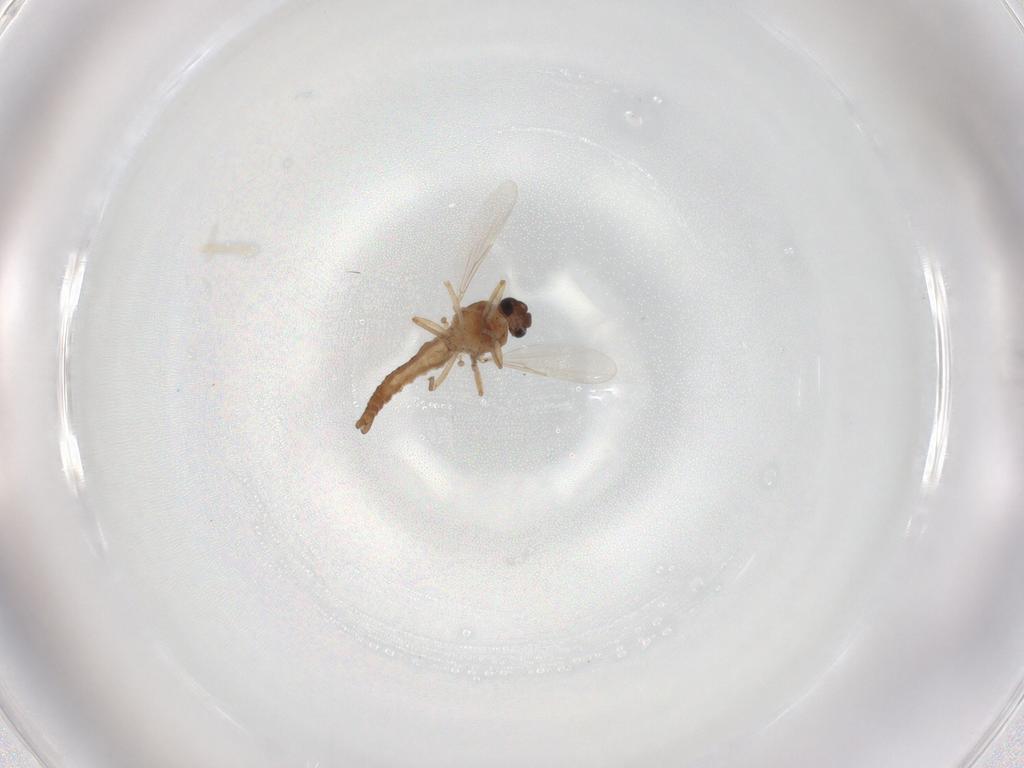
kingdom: Animalia
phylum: Arthropoda
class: Insecta
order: Diptera
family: Ceratopogonidae
